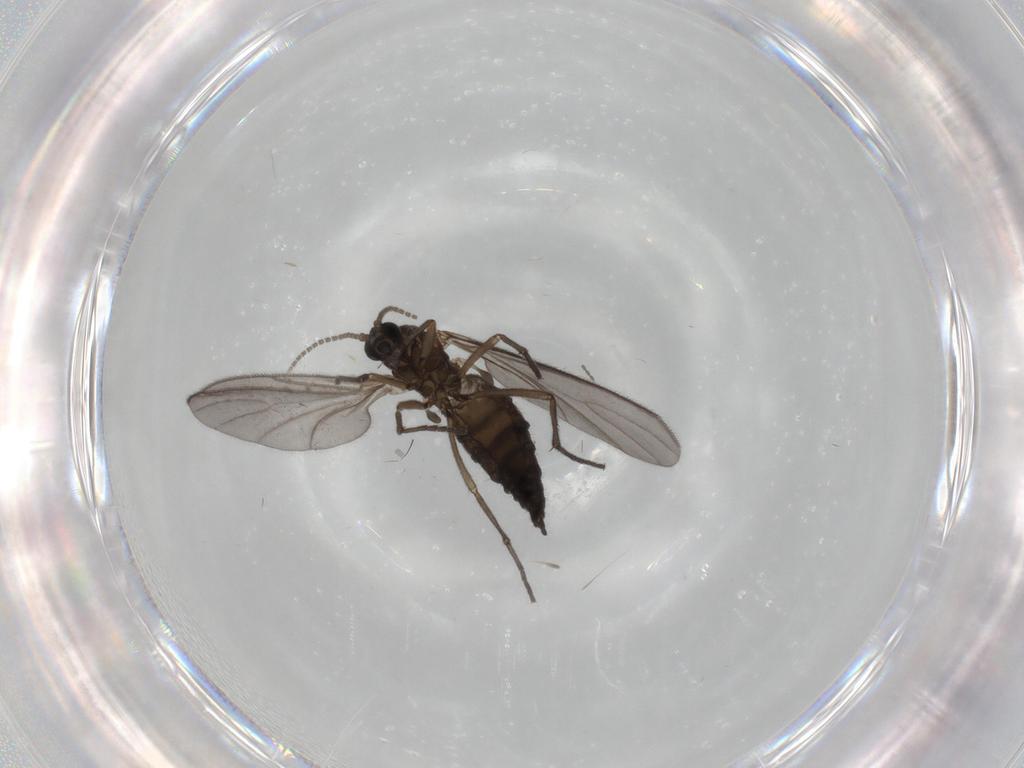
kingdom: Animalia
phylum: Arthropoda
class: Insecta
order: Diptera
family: Sciaridae
